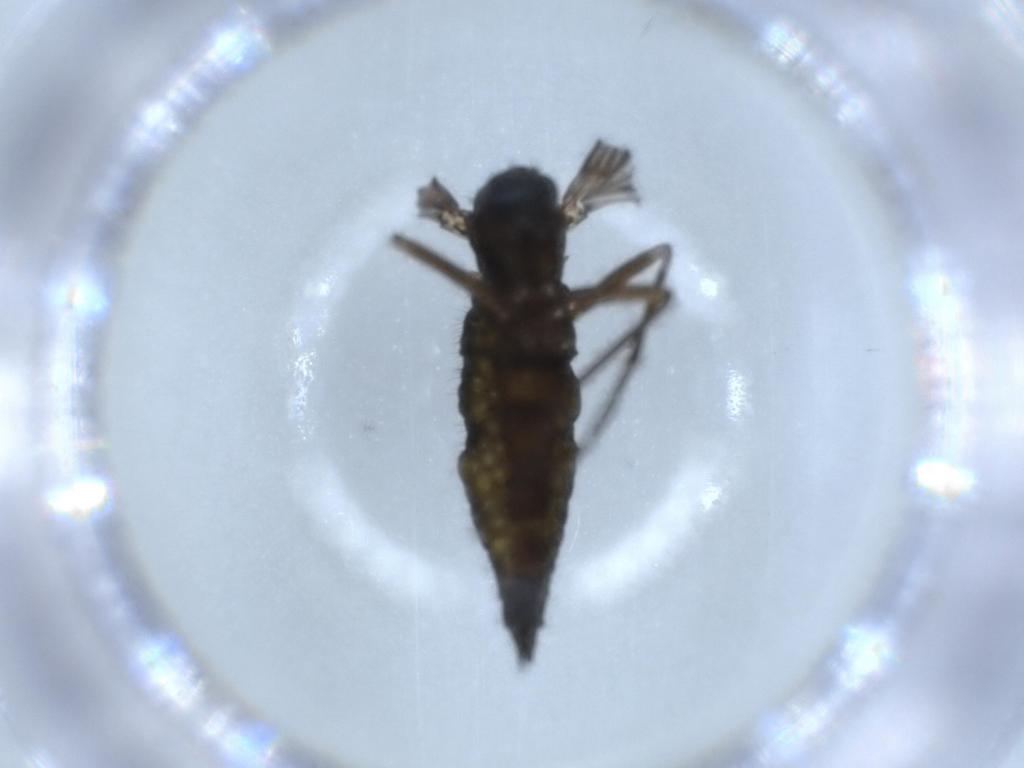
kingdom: Animalia
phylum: Arthropoda
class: Insecta
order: Diptera
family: Sciaridae
